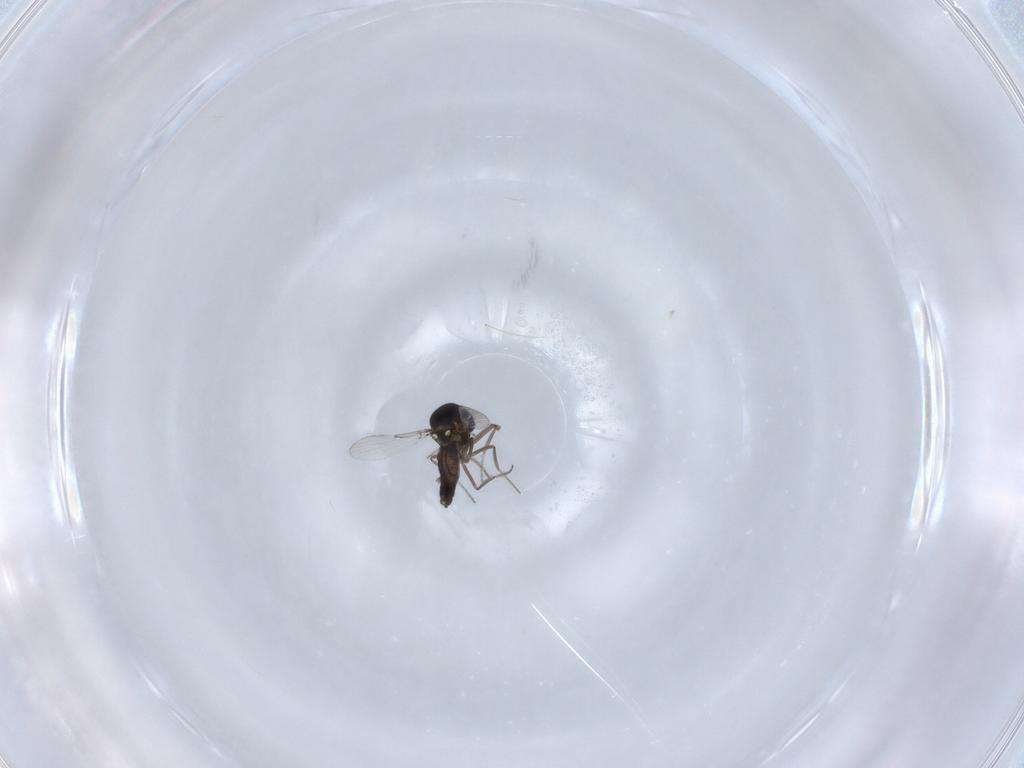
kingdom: Animalia
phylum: Arthropoda
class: Insecta
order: Diptera
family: Ceratopogonidae
